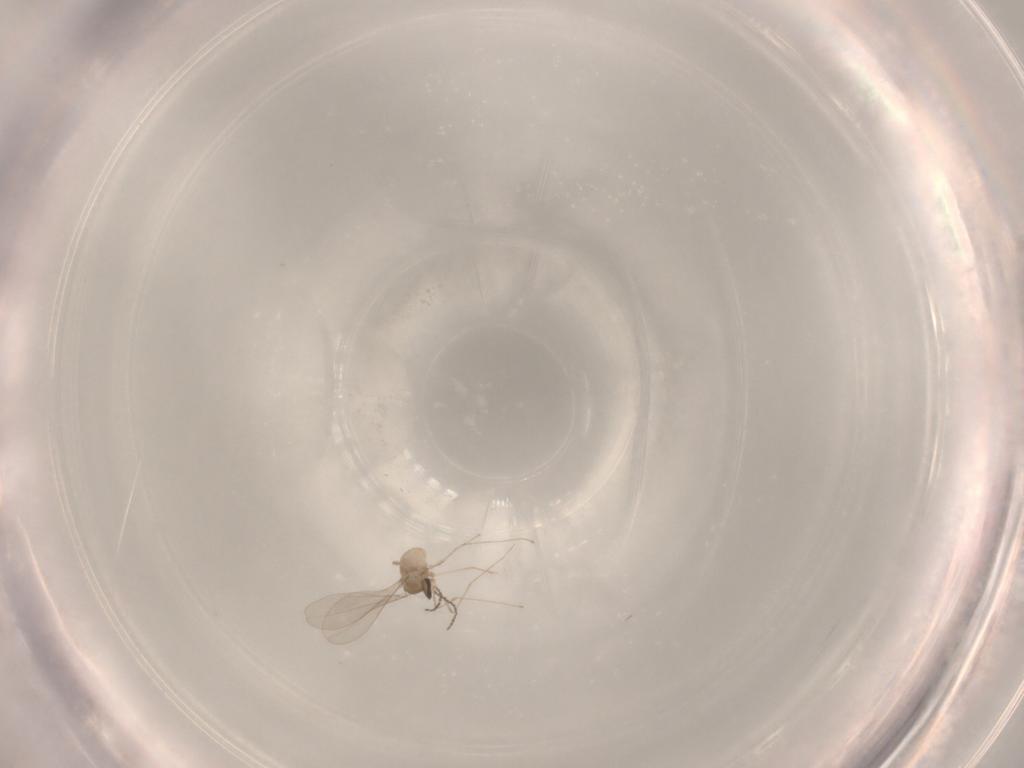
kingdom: Animalia
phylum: Arthropoda
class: Insecta
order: Diptera
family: Cecidomyiidae
